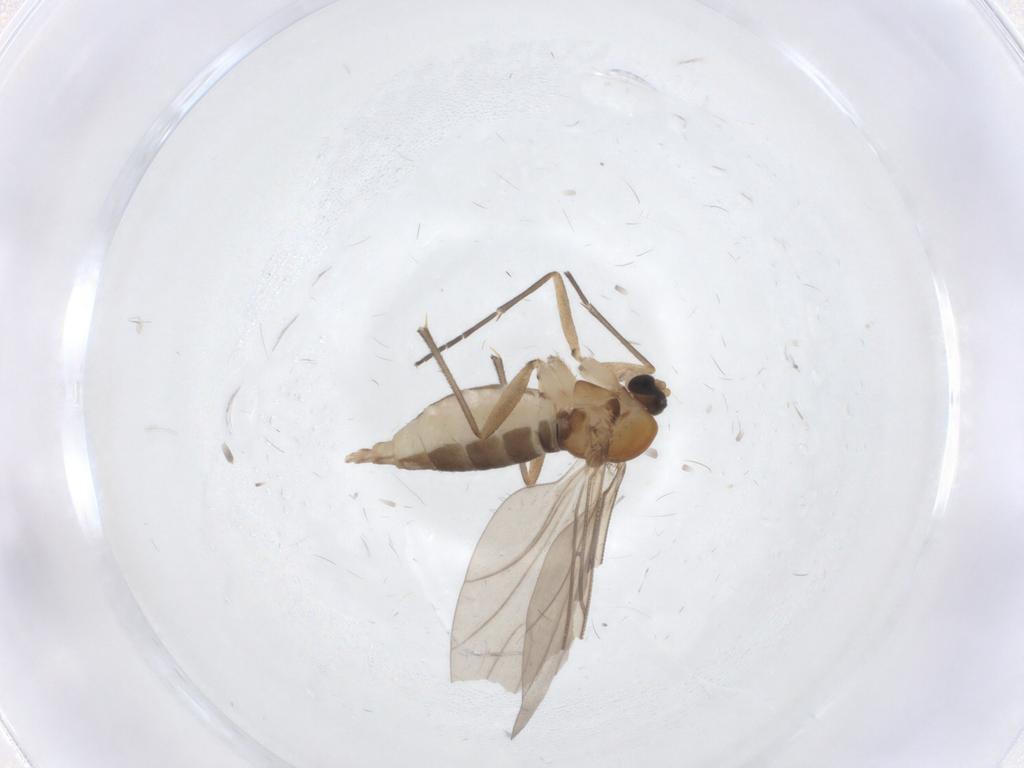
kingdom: Animalia
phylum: Arthropoda
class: Insecta
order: Diptera
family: Sciaridae
